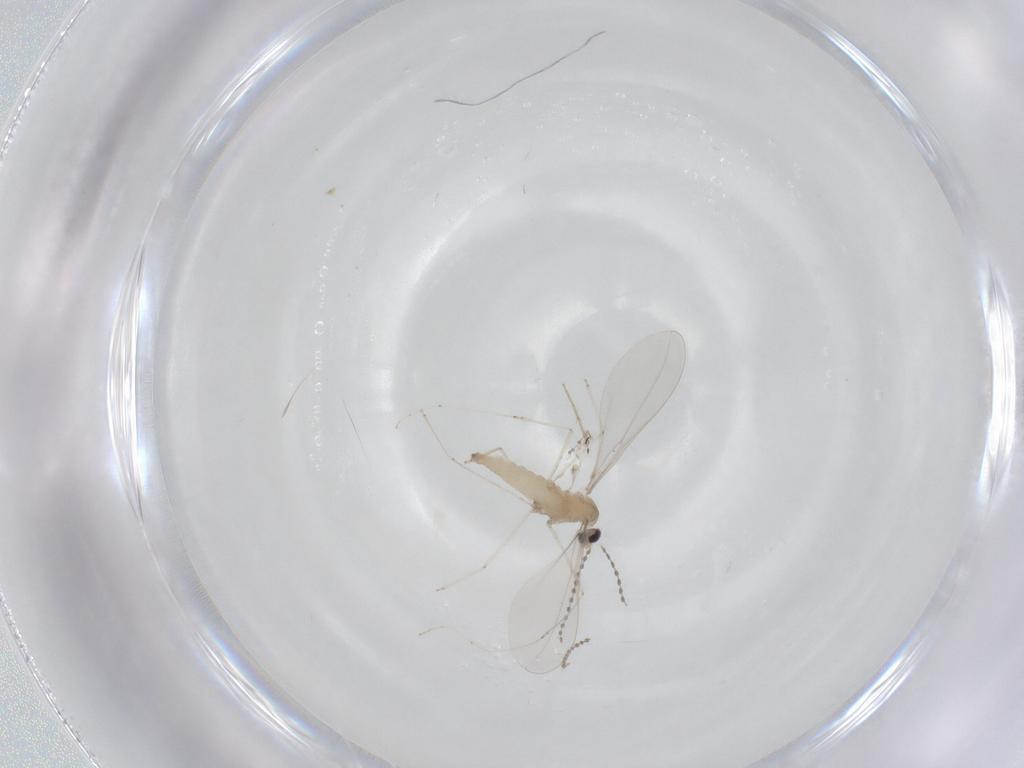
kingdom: Animalia
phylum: Arthropoda
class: Insecta
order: Diptera
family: Cecidomyiidae
